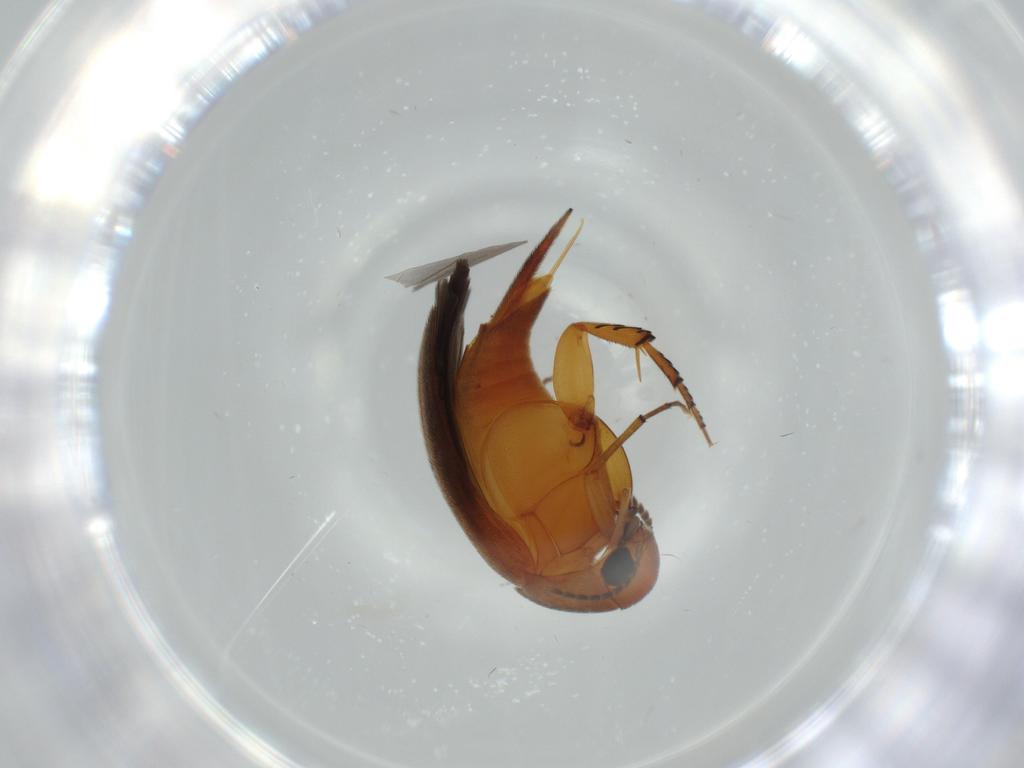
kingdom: Animalia
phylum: Arthropoda
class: Insecta
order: Coleoptera
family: Mordellidae
